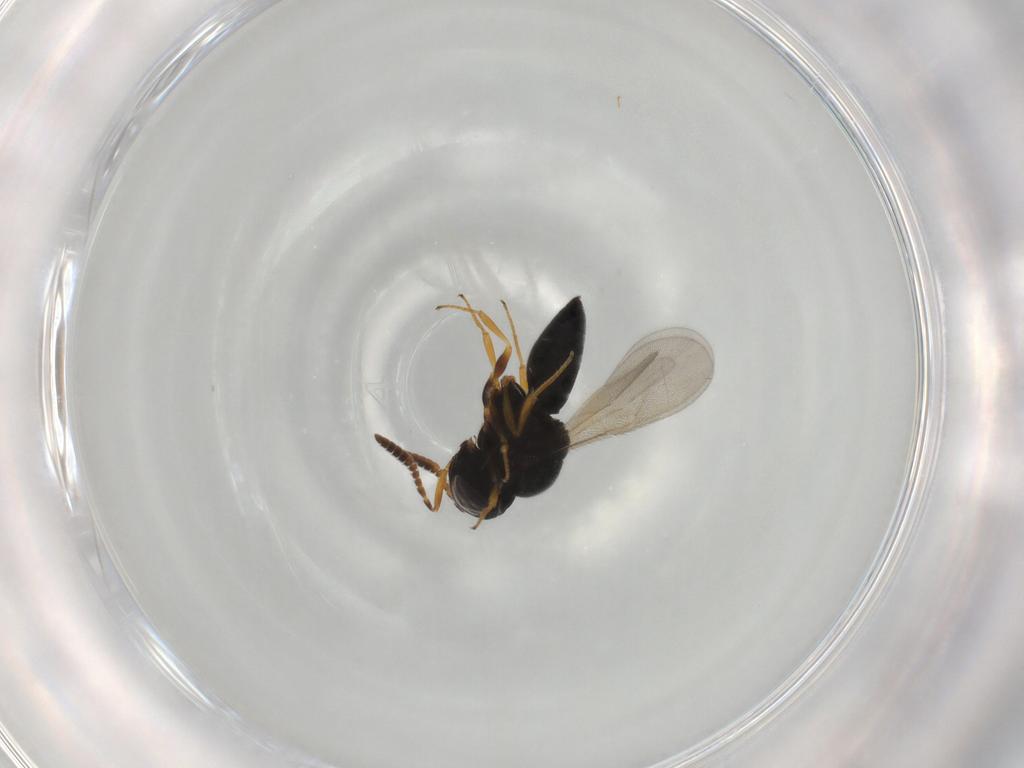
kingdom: Animalia
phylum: Arthropoda
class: Insecta
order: Hymenoptera
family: Scelionidae
